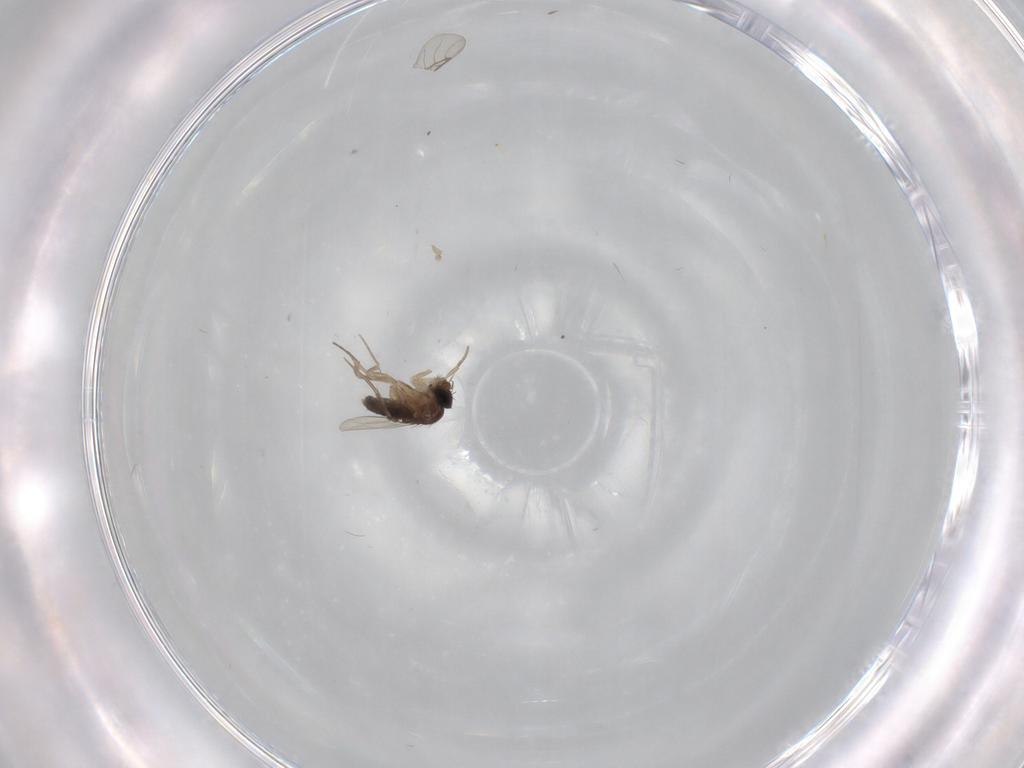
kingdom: Animalia
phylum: Arthropoda
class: Insecta
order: Diptera
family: Phoridae
